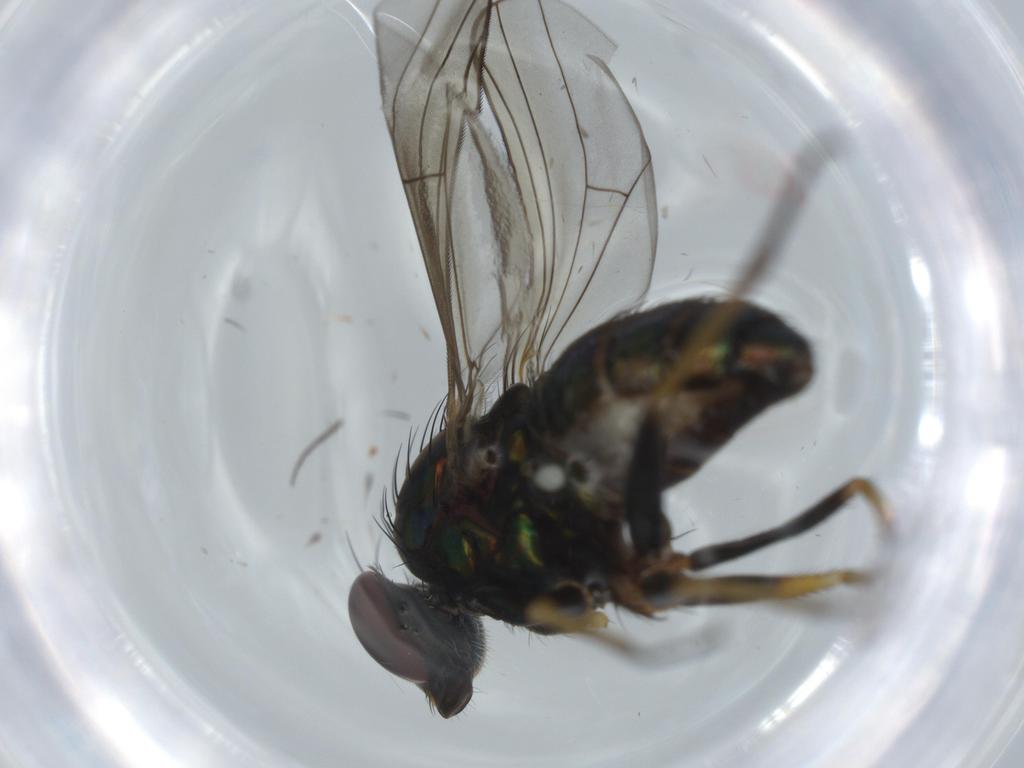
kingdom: Animalia
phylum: Arthropoda
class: Insecta
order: Diptera
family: Dolichopodidae
